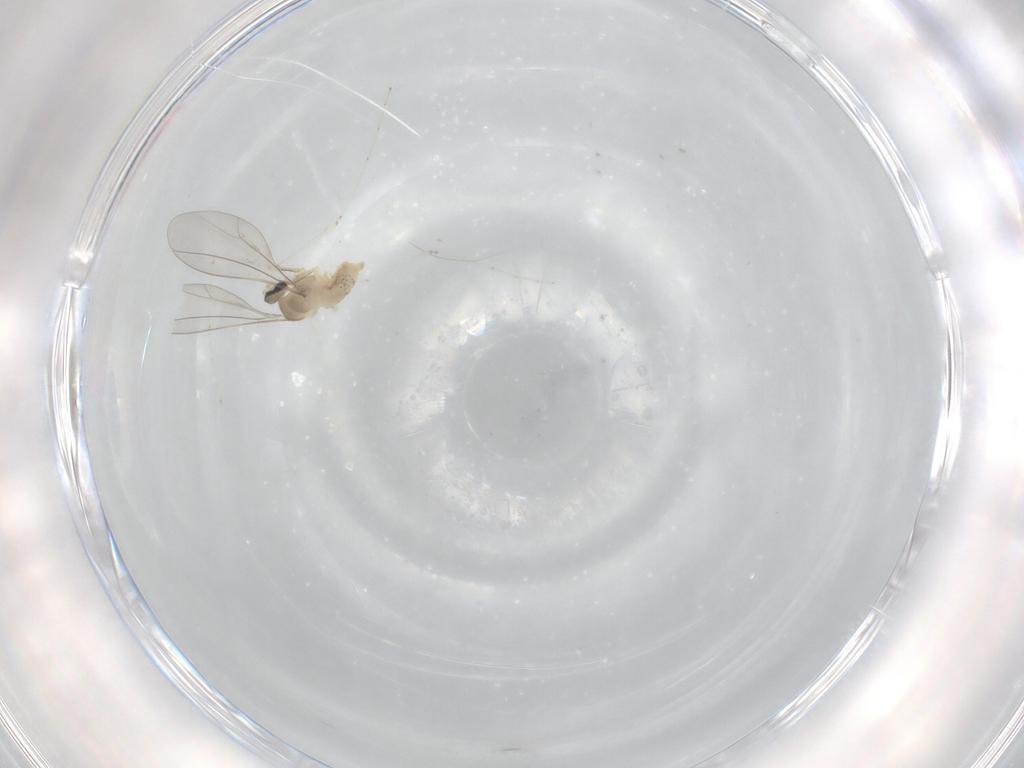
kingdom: Animalia
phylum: Arthropoda
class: Insecta
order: Diptera
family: Cecidomyiidae
